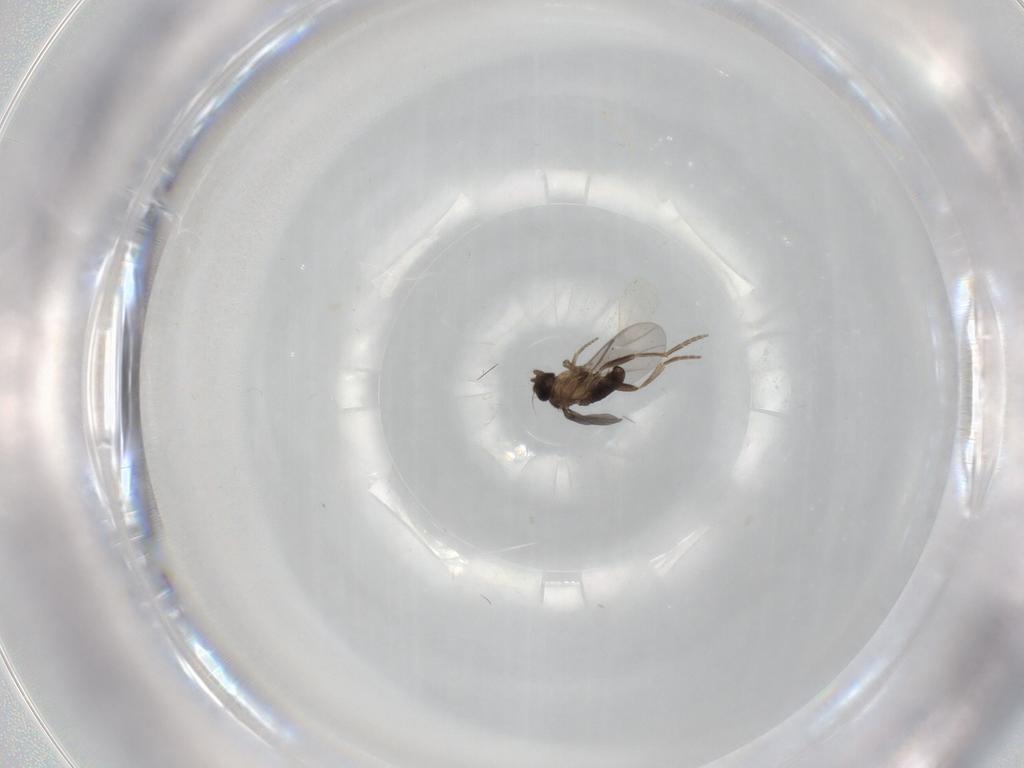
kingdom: Animalia
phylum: Arthropoda
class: Insecta
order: Diptera
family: Cecidomyiidae
